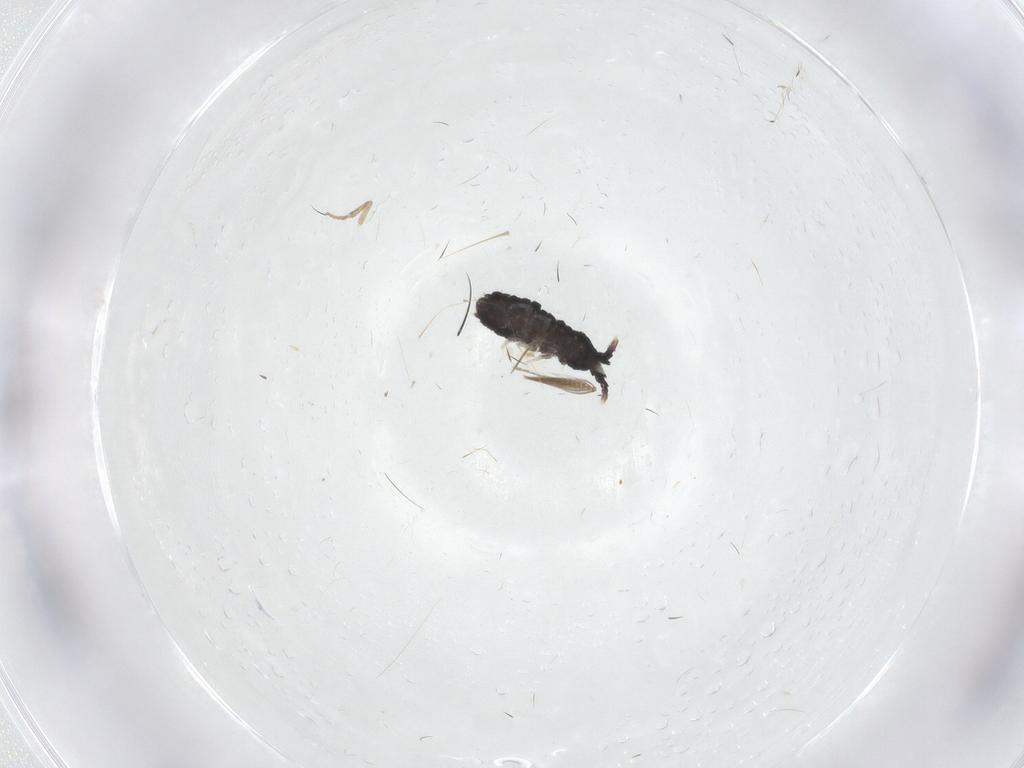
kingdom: Animalia
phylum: Arthropoda
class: Collembola
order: Poduromorpha
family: Neanuridae
